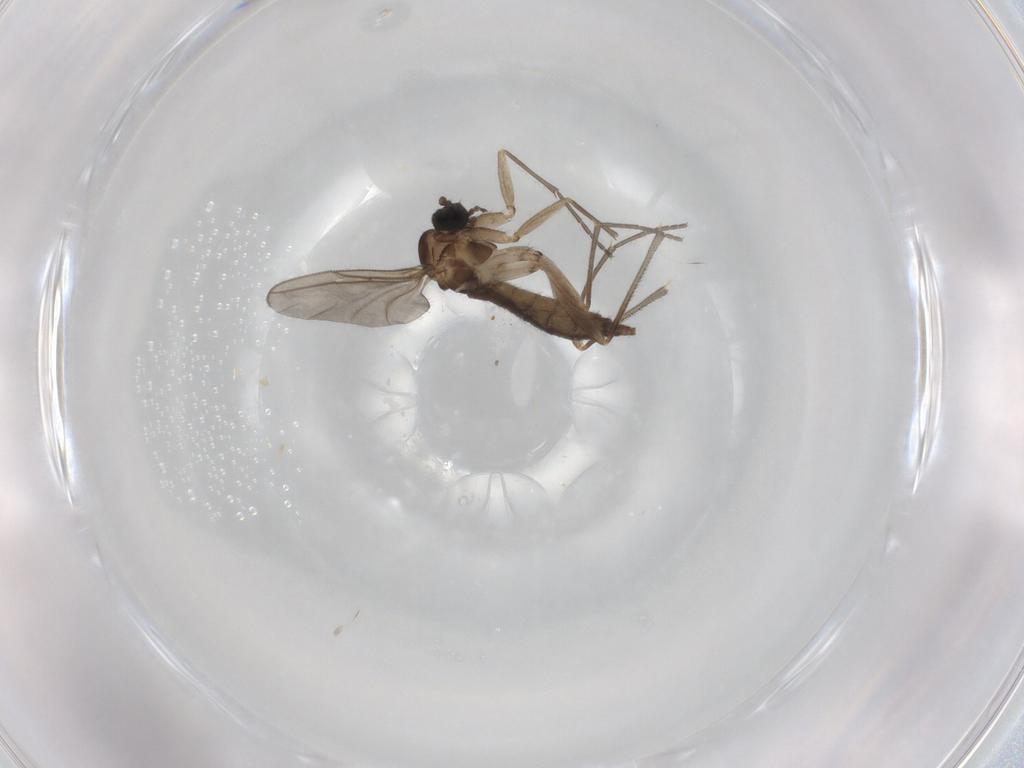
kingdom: Animalia
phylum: Arthropoda
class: Insecta
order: Diptera
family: Sciaridae
